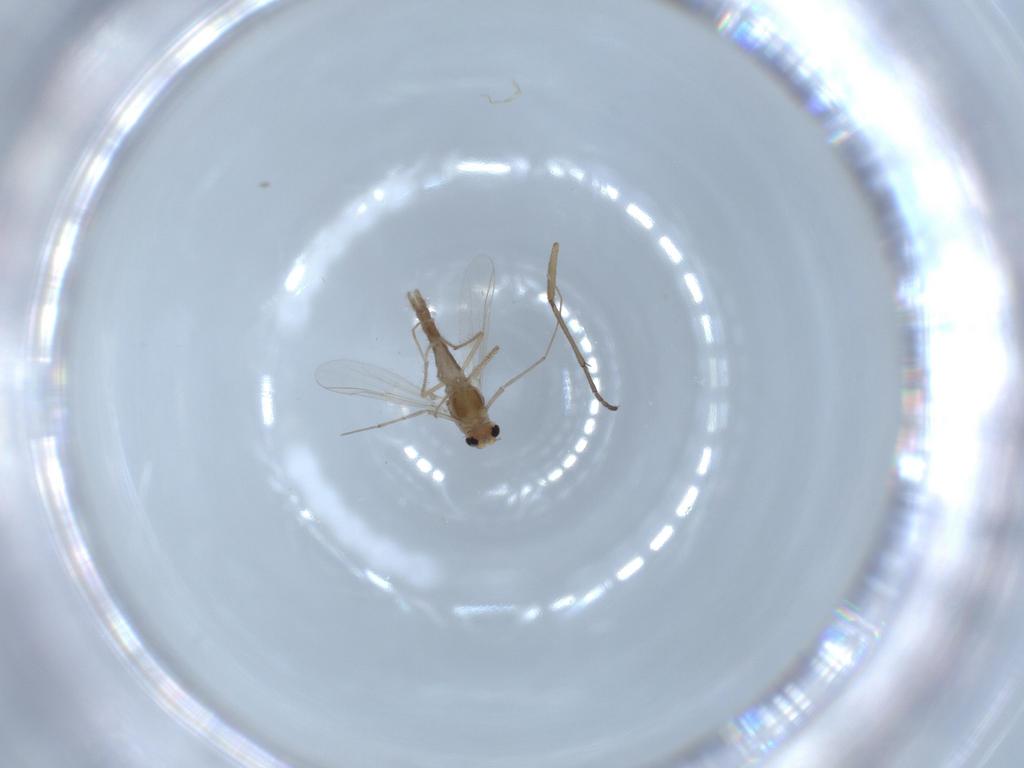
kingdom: Animalia
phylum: Arthropoda
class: Insecta
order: Diptera
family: Chironomidae
